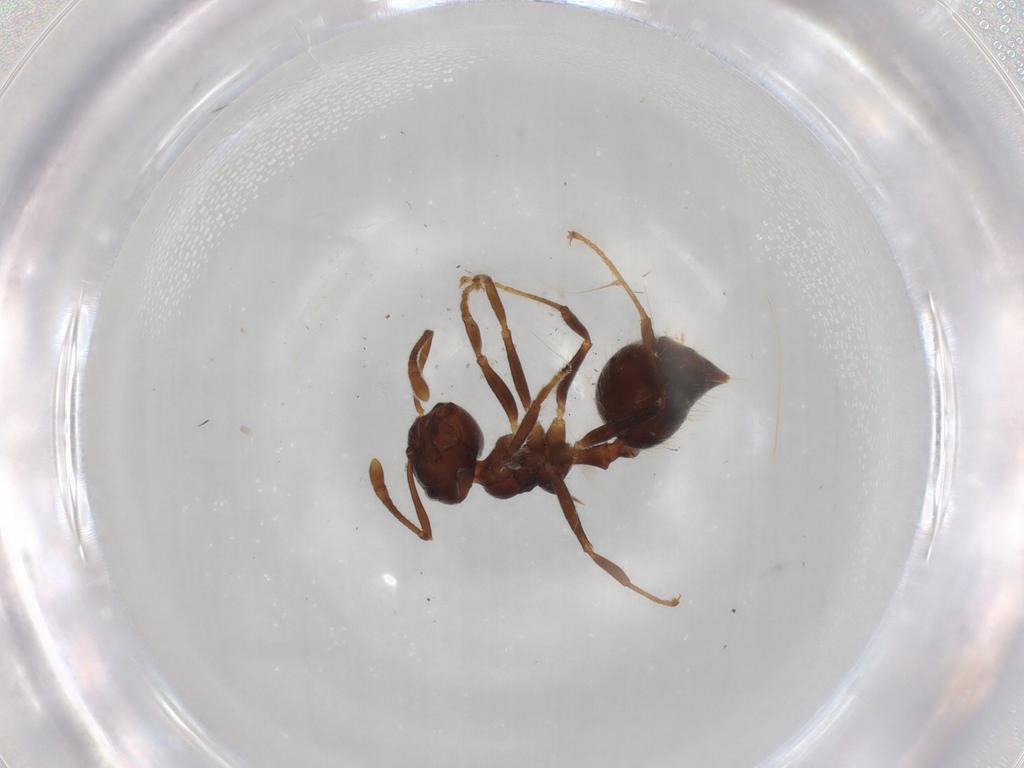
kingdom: Animalia
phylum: Arthropoda
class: Insecta
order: Hymenoptera
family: Formicidae
